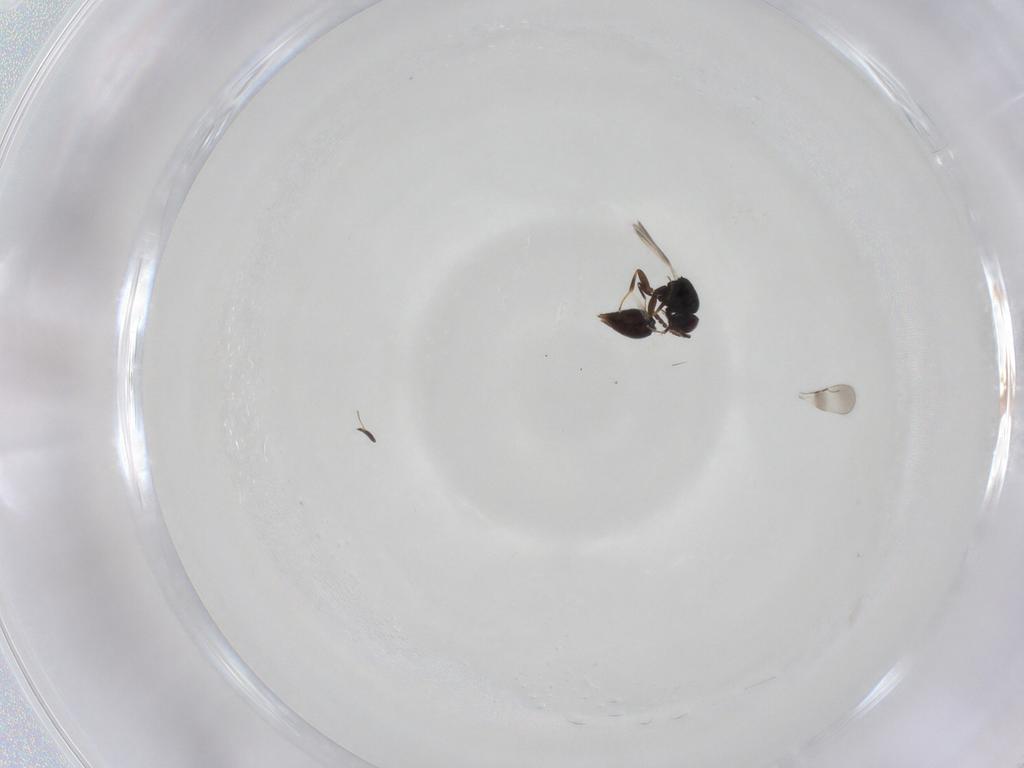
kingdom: Animalia
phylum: Arthropoda
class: Insecta
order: Hymenoptera
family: Platygastridae
